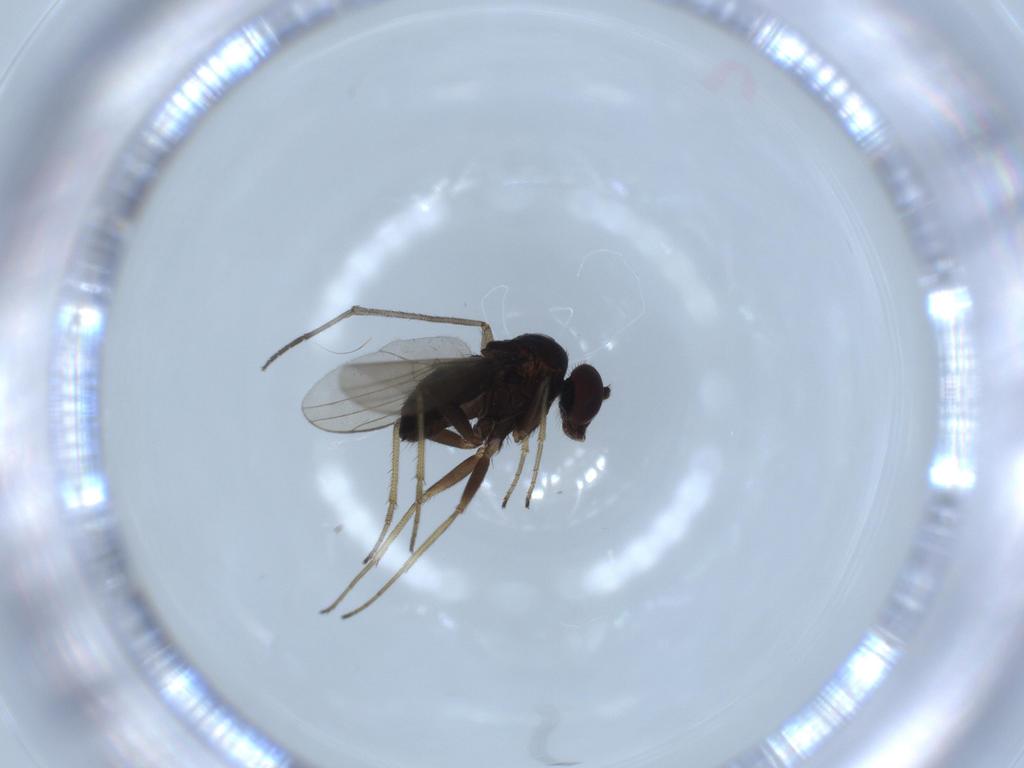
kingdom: Animalia
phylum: Arthropoda
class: Insecta
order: Diptera
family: Dolichopodidae
